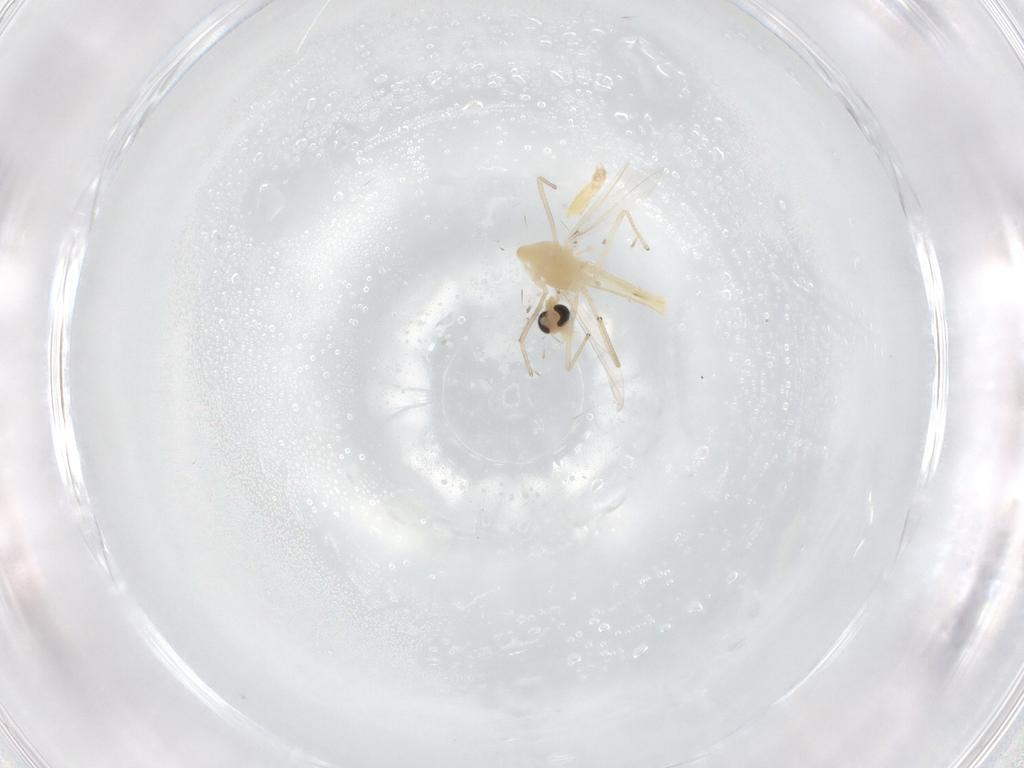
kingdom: Animalia
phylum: Arthropoda
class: Insecta
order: Diptera
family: Chironomidae
